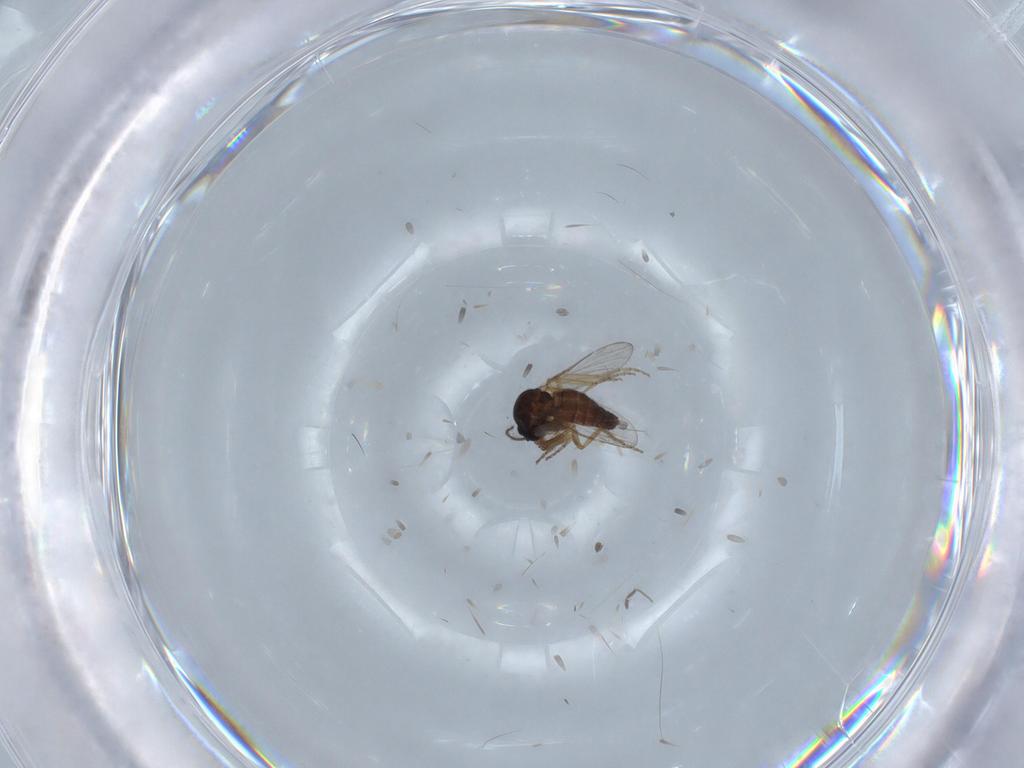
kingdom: Animalia
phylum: Arthropoda
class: Insecta
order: Diptera
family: Chironomidae
